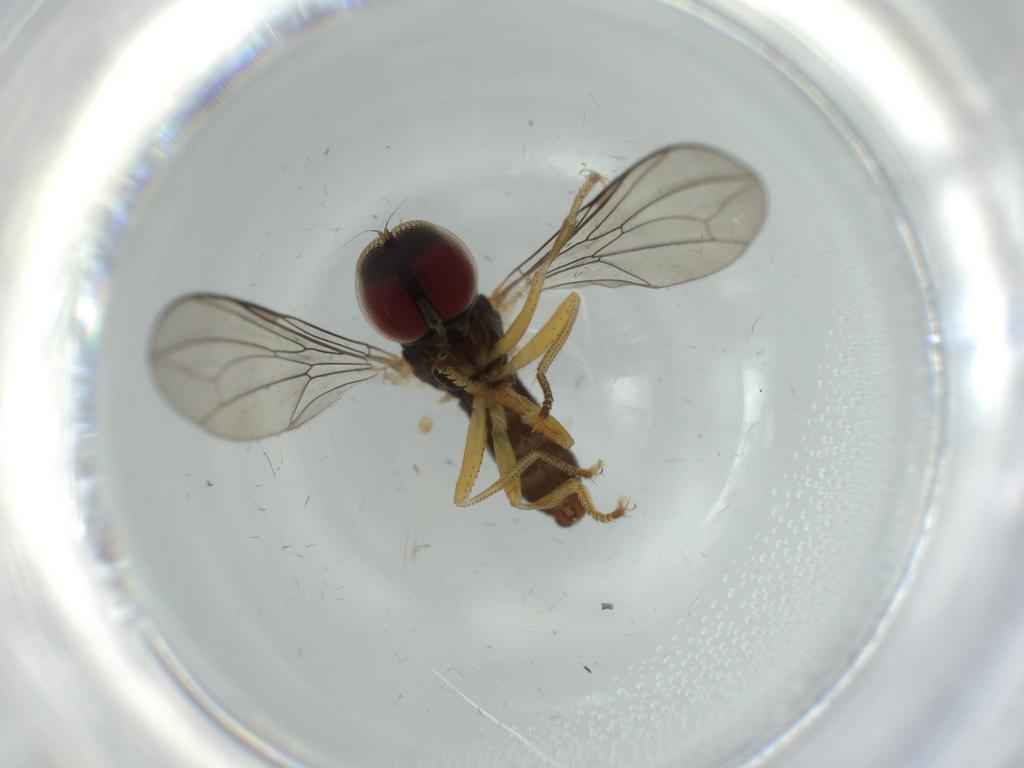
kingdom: Animalia
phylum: Arthropoda
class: Insecta
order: Diptera
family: Pipunculidae
